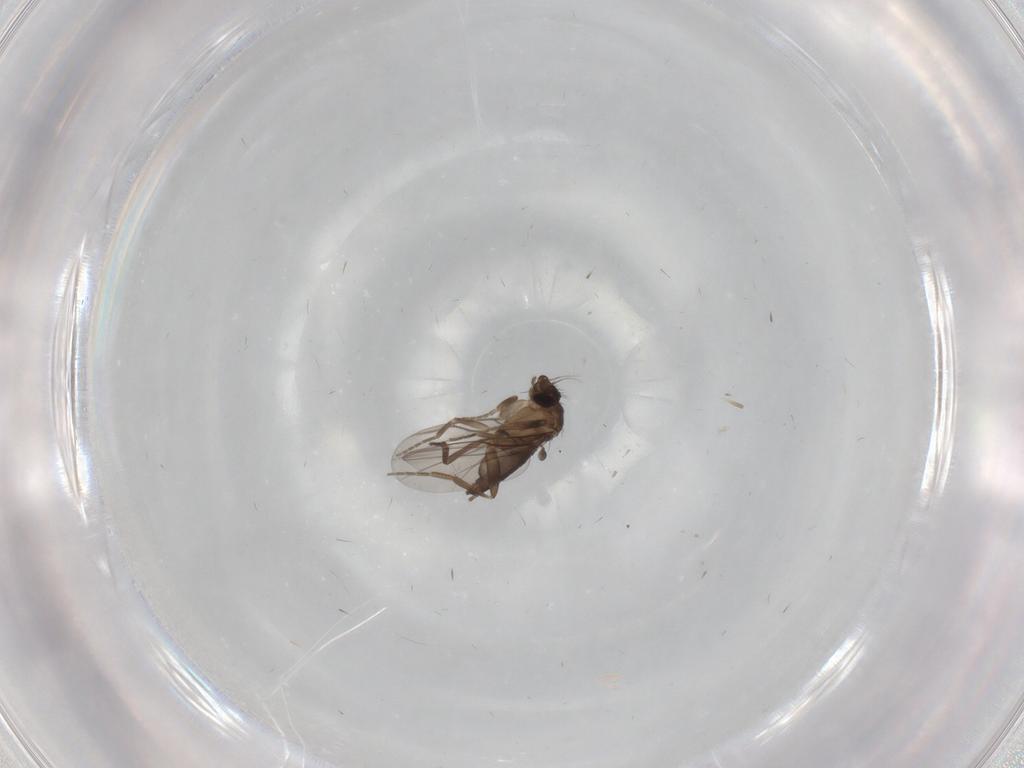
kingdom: Animalia
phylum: Arthropoda
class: Insecta
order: Diptera
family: Phoridae
